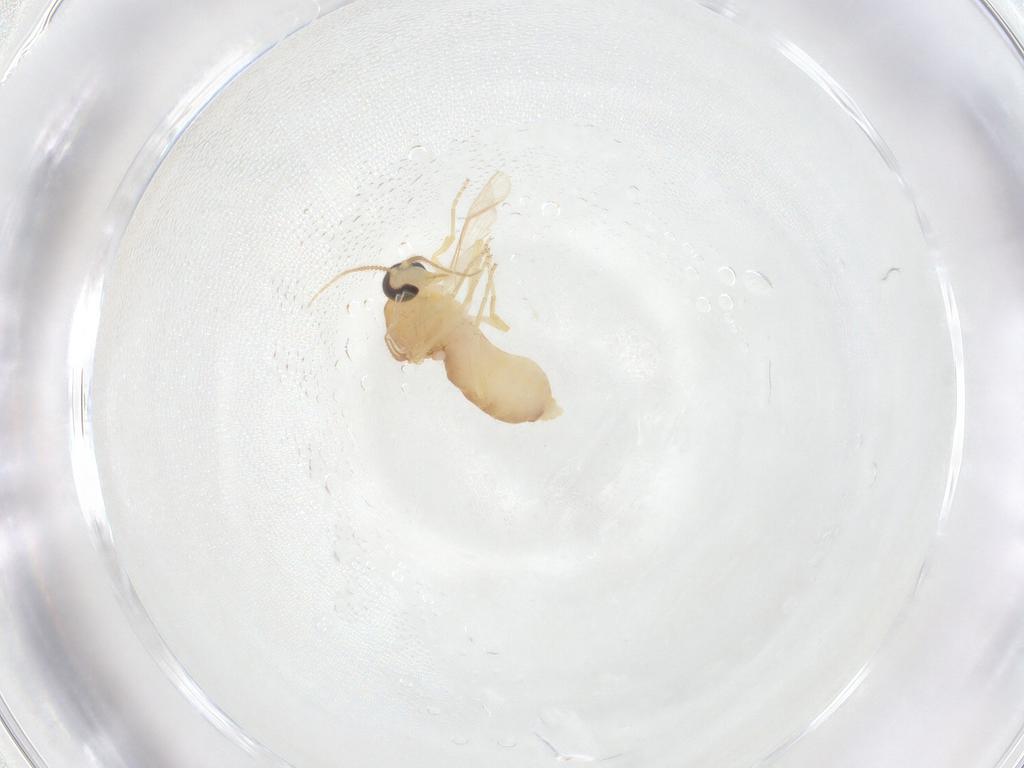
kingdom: Animalia
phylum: Arthropoda
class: Insecta
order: Diptera
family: Ceratopogonidae
